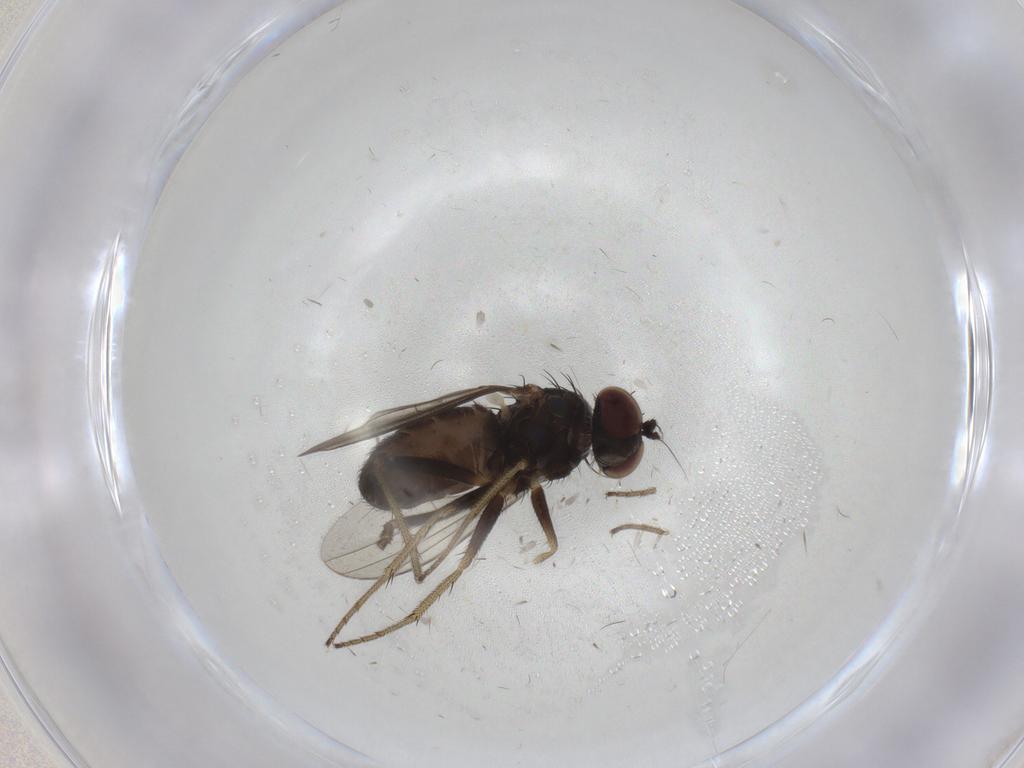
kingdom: Animalia
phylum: Arthropoda
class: Insecta
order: Diptera
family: Dolichopodidae
